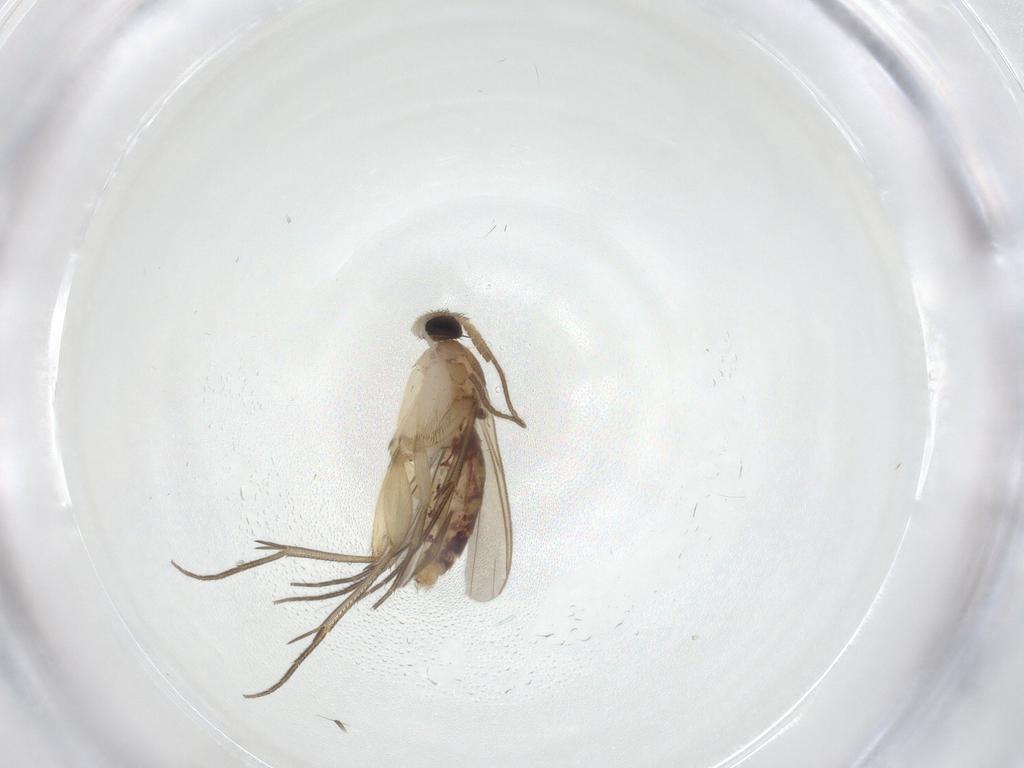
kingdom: Animalia
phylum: Arthropoda
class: Insecta
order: Diptera
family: Mycetophilidae
